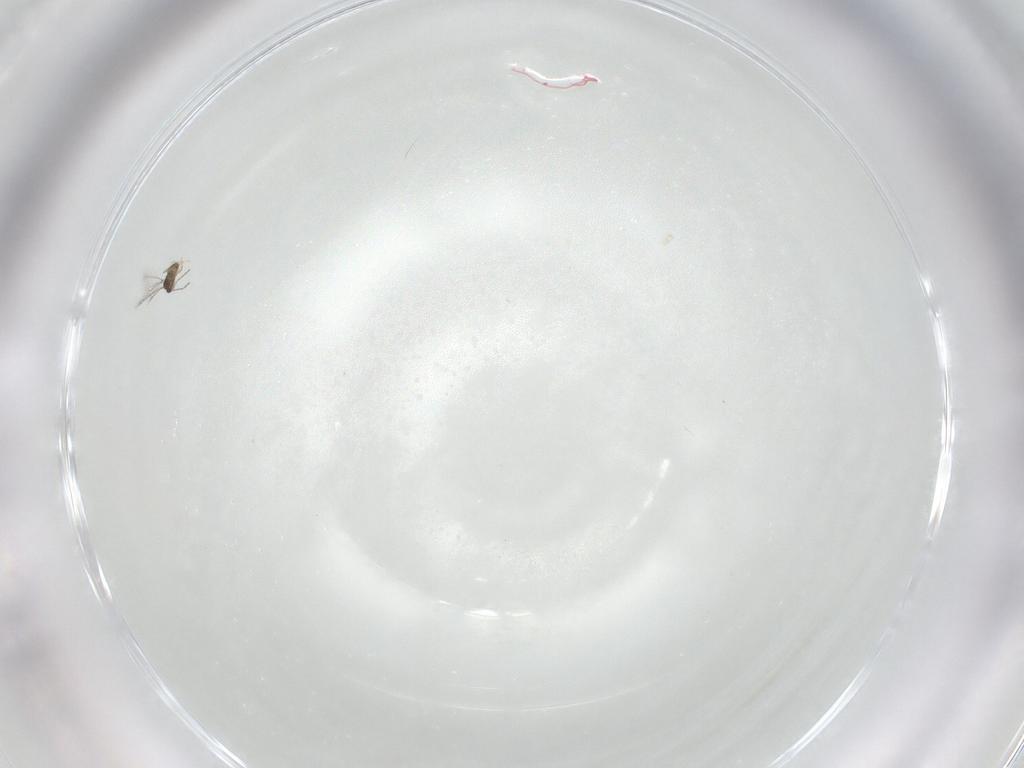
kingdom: Animalia
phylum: Arthropoda
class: Insecta
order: Hymenoptera
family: Mymaridae
